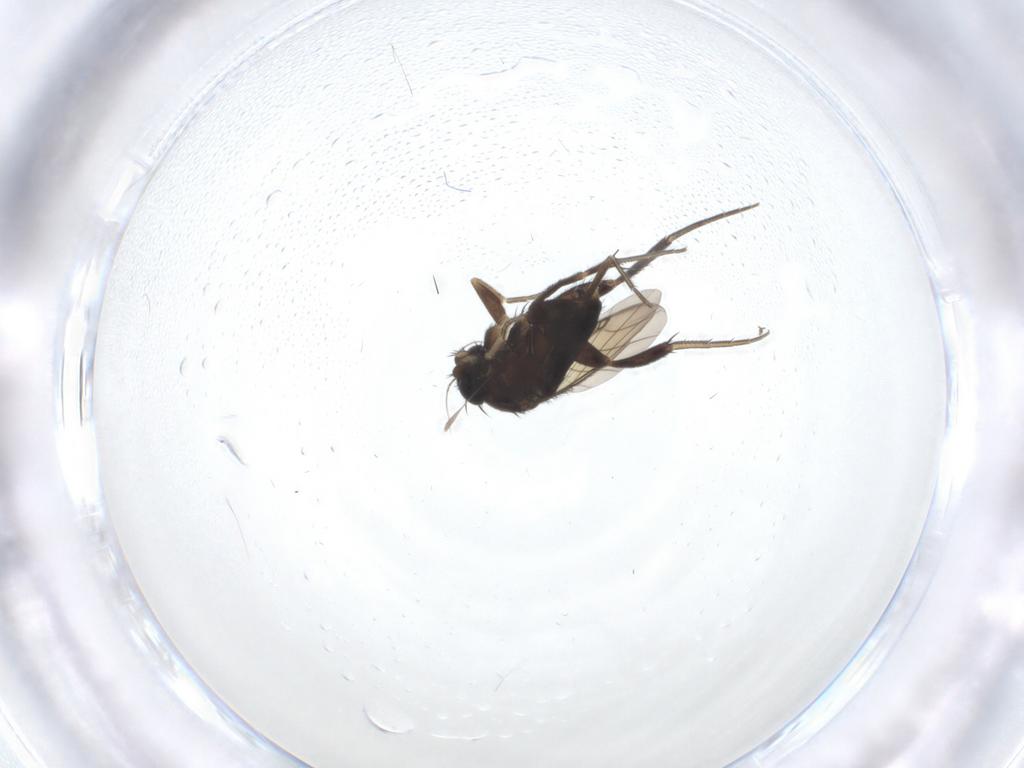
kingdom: Animalia
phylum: Arthropoda
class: Insecta
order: Diptera
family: Phoridae
